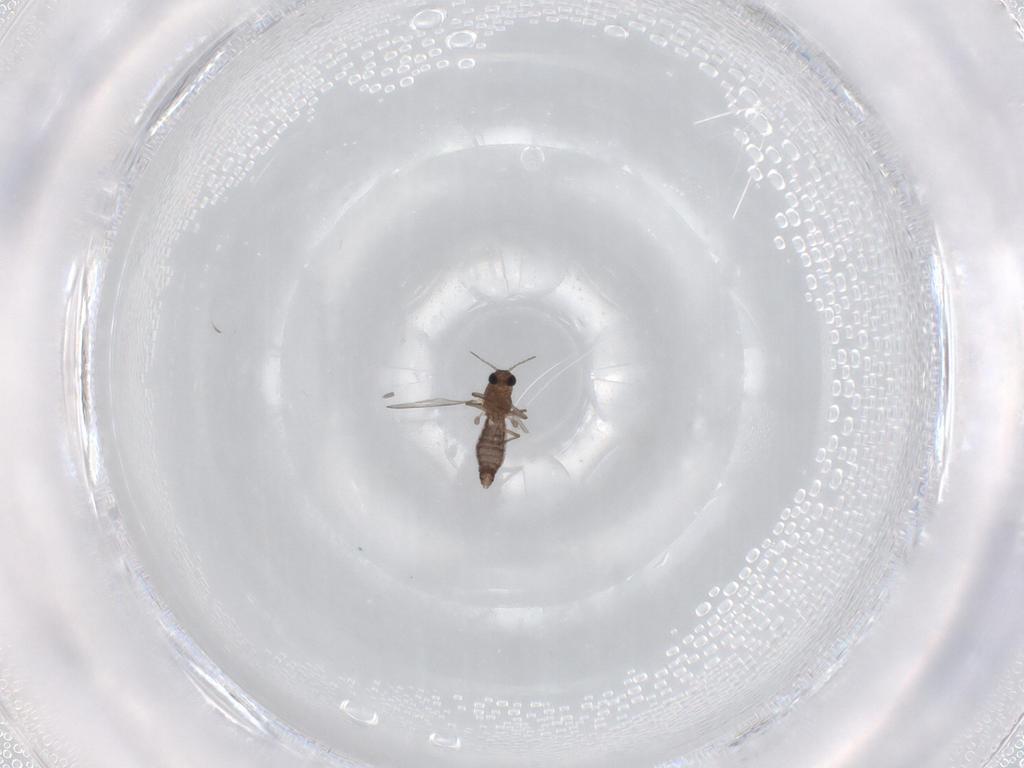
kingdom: Animalia
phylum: Arthropoda
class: Insecta
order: Diptera
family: Chironomidae
